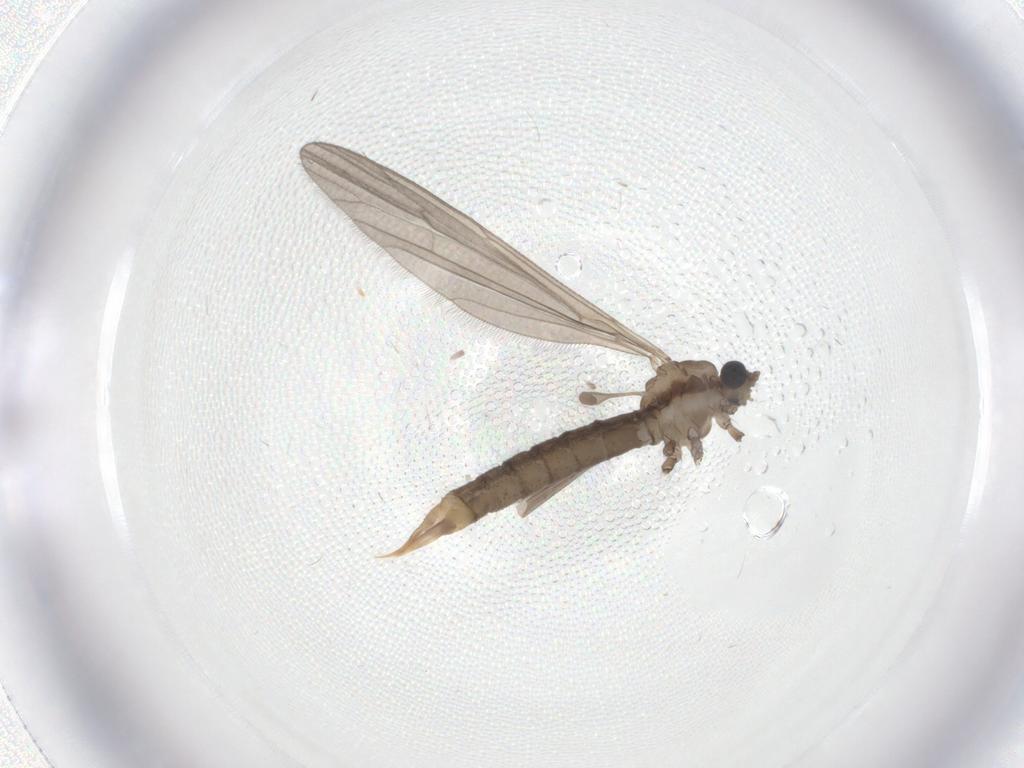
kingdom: Animalia
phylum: Arthropoda
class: Insecta
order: Diptera
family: Limoniidae
